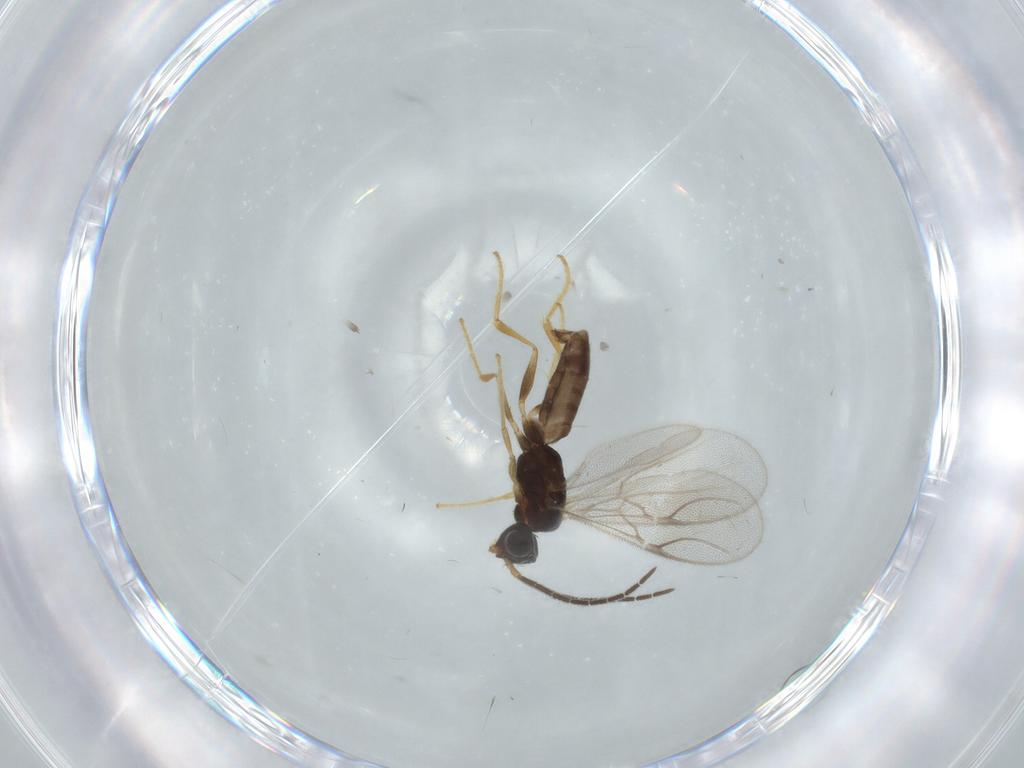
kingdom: Animalia
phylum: Arthropoda
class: Insecta
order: Hymenoptera
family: Dryinidae
